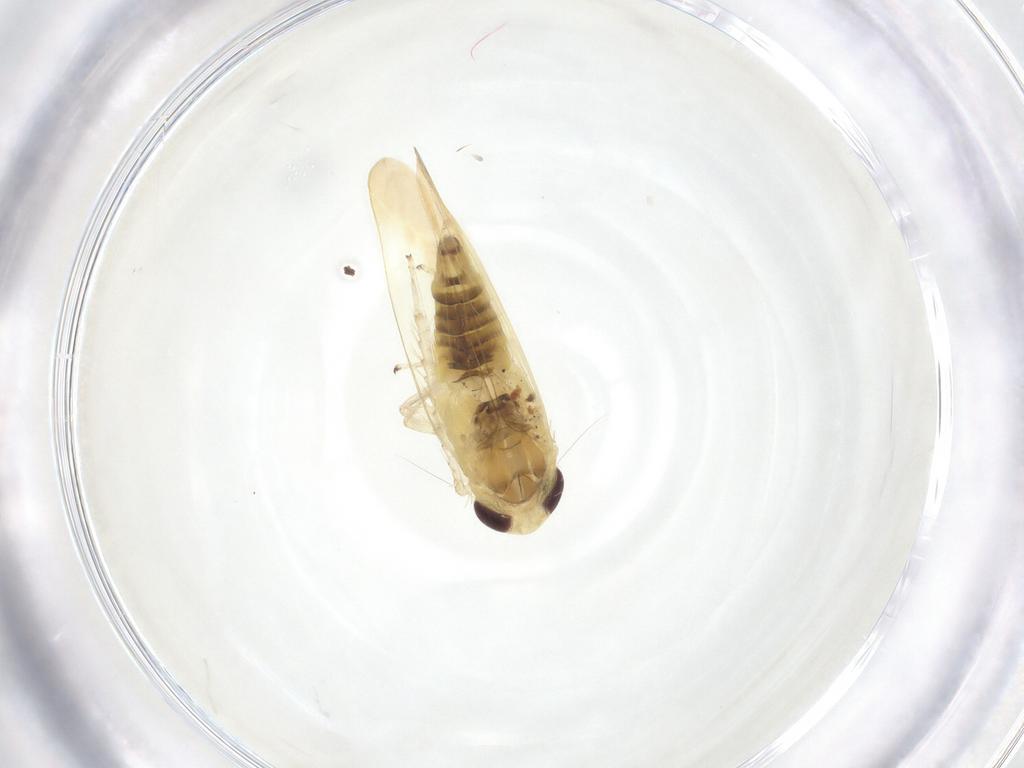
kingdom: Animalia
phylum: Arthropoda
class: Insecta
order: Hemiptera
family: Cicadellidae
